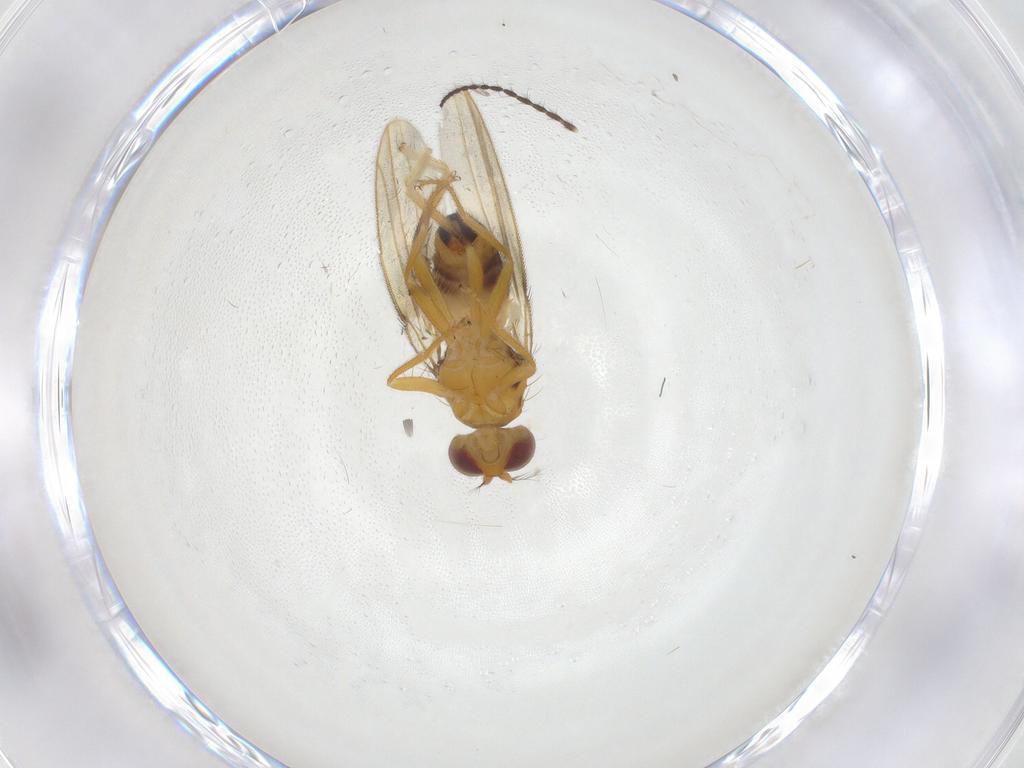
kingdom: Animalia
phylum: Arthropoda
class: Insecta
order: Diptera
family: Periscelididae
